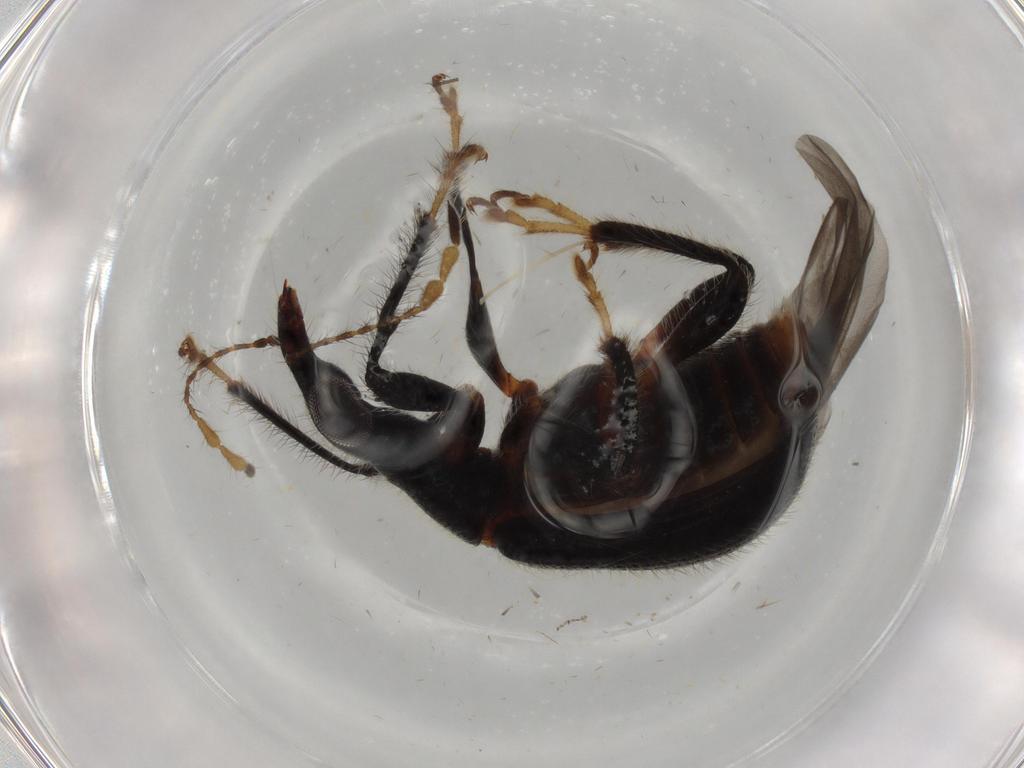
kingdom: Animalia
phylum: Arthropoda
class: Insecta
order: Coleoptera
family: Attelabidae
